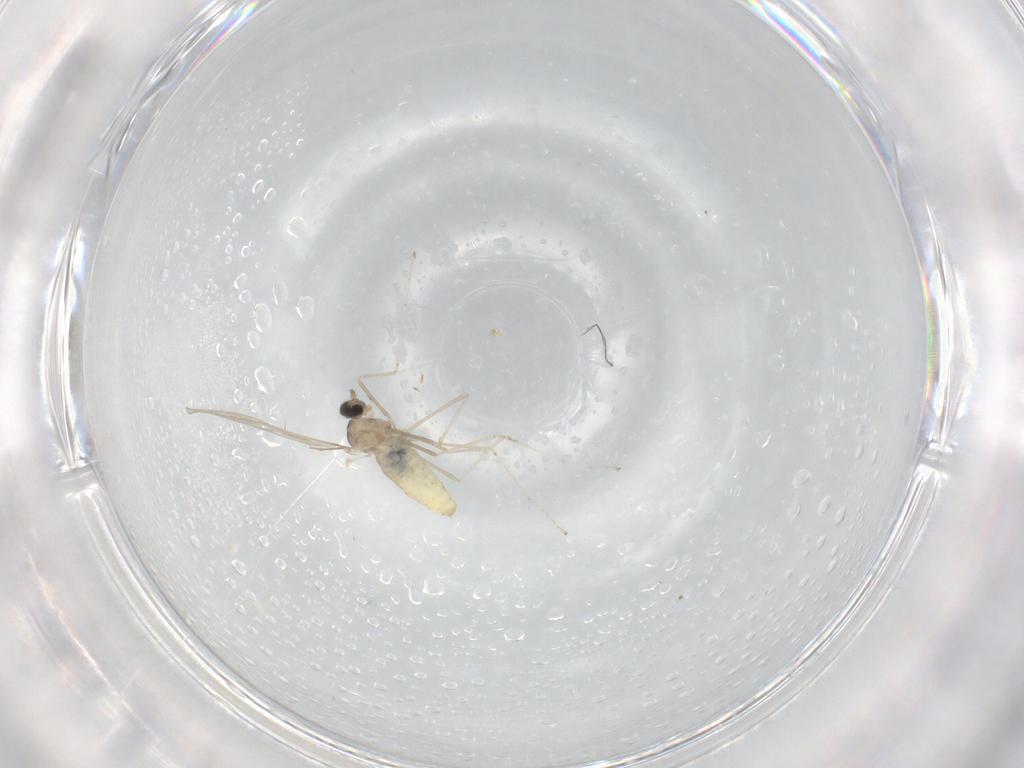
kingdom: Animalia
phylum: Arthropoda
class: Insecta
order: Diptera
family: Cecidomyiidae
